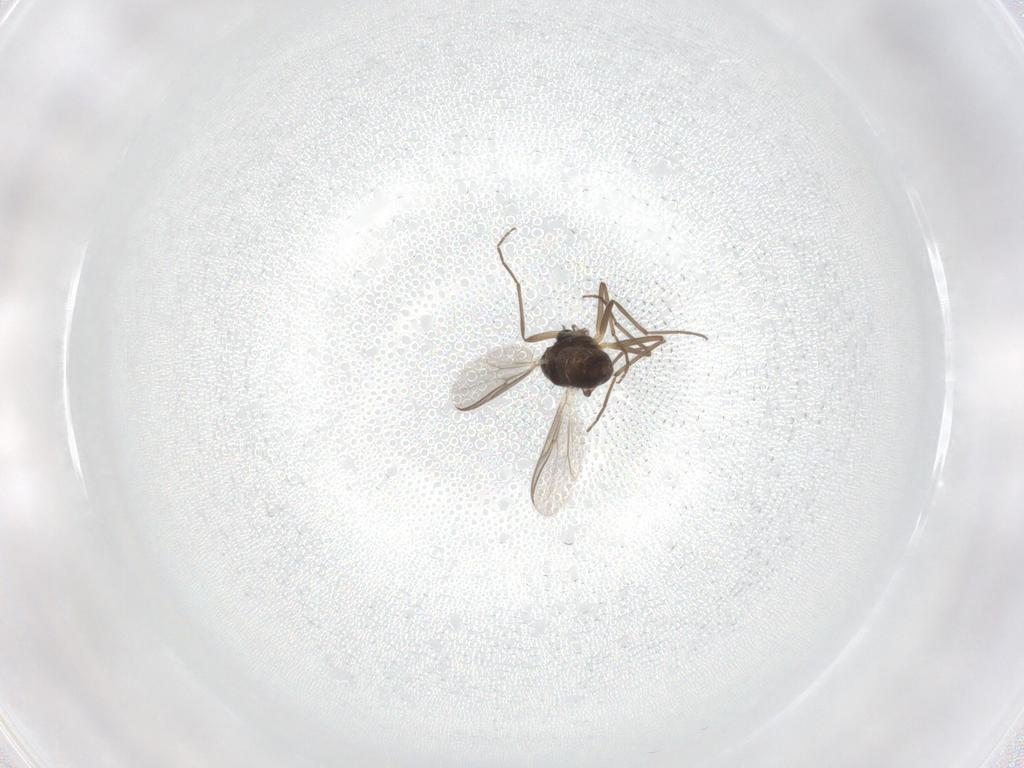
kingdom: Animalia
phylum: Arthropoda
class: Insecta
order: Diptera
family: Chironomidae
